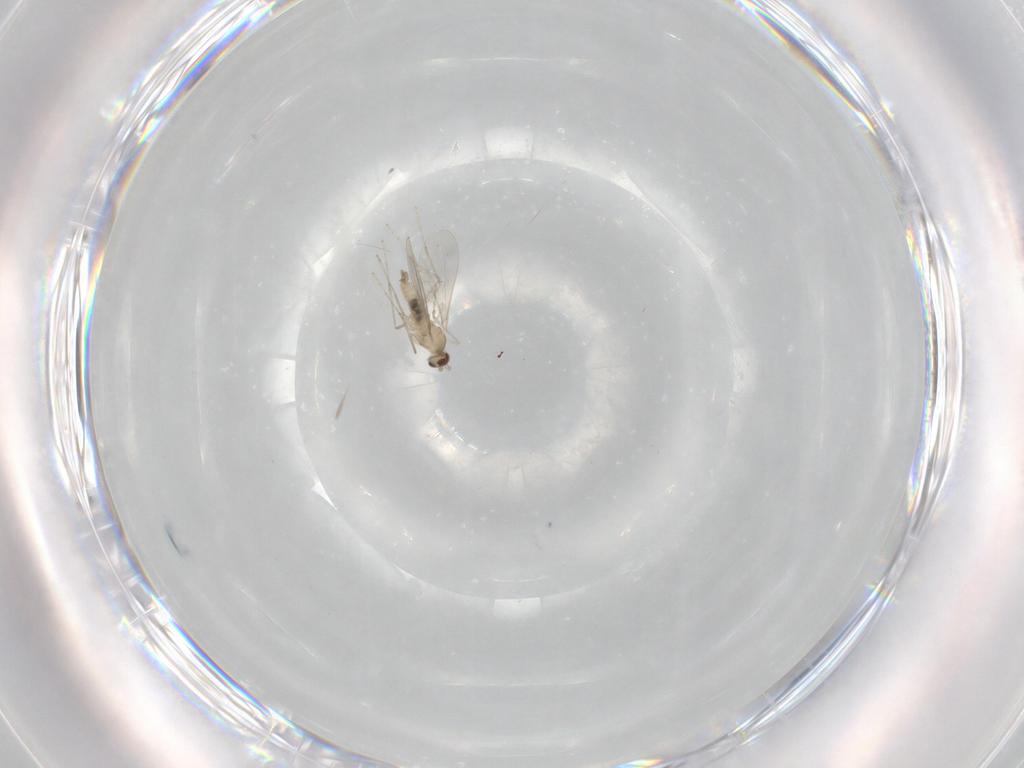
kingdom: Animalia
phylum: Arthropoda
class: Insecta
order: Diptera
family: Cecidomyiidae
